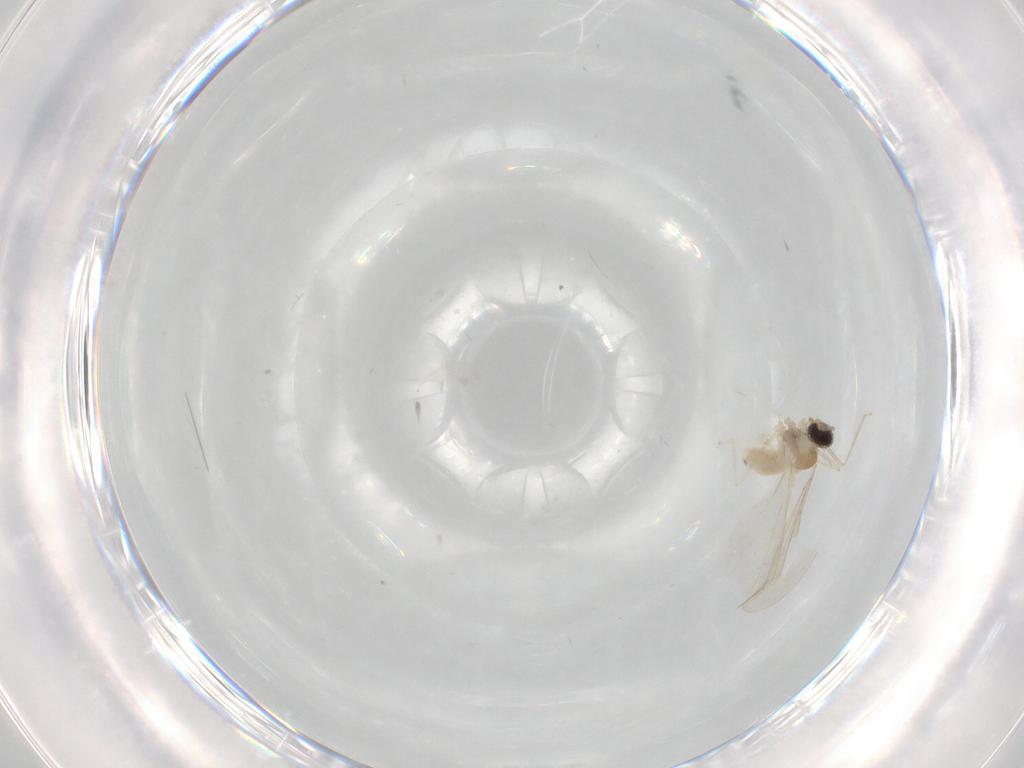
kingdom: Animalia
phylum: Arthropoda
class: Insecta
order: Diptera
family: Cecidomyiidae
